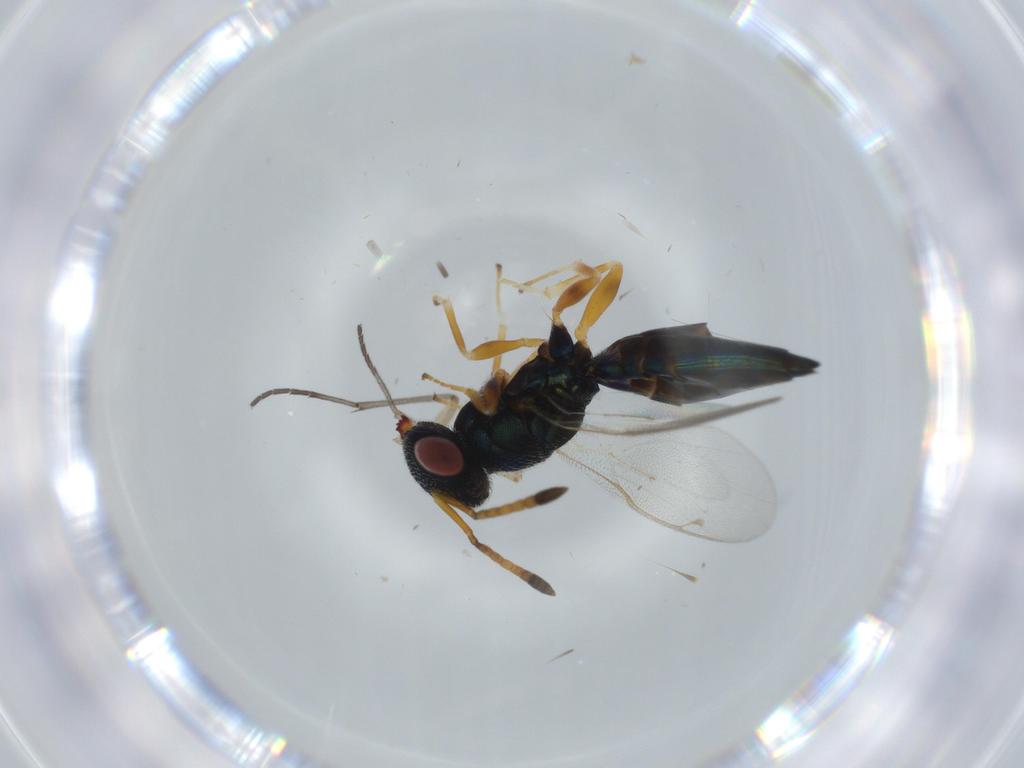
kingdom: Animalia
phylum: Arthropoda
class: Insecta
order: Hymenoptera
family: Pteromalidae
